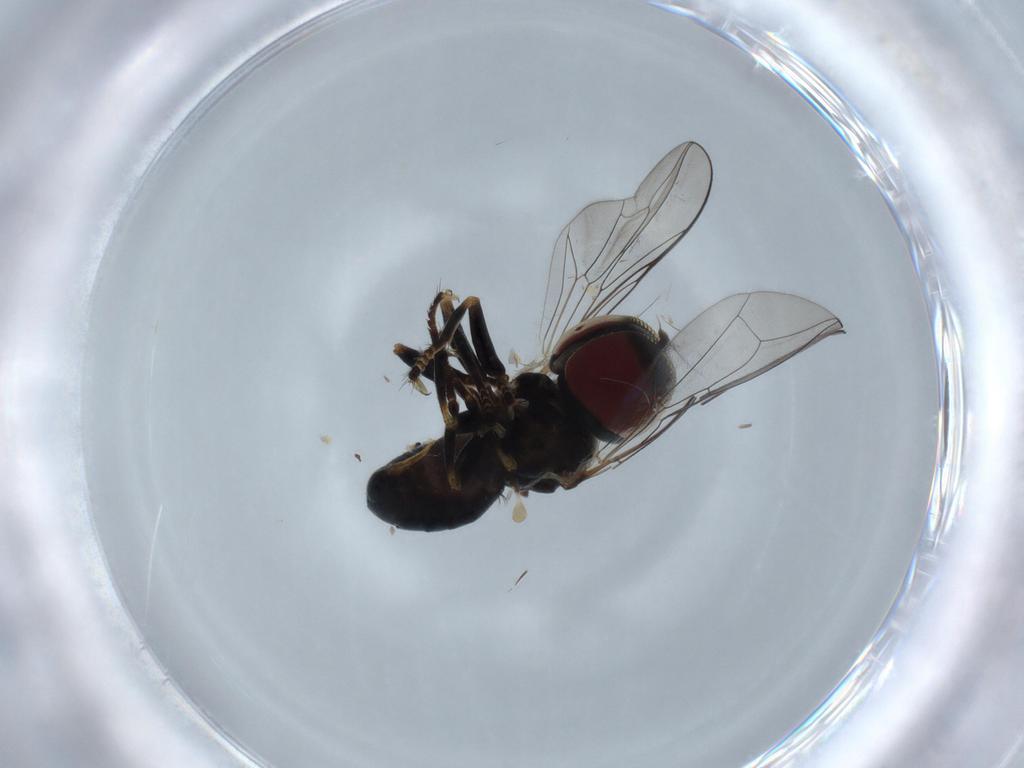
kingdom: Animalia
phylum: Arthropoda
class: Insecta
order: Diptera
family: Pipunculidae
